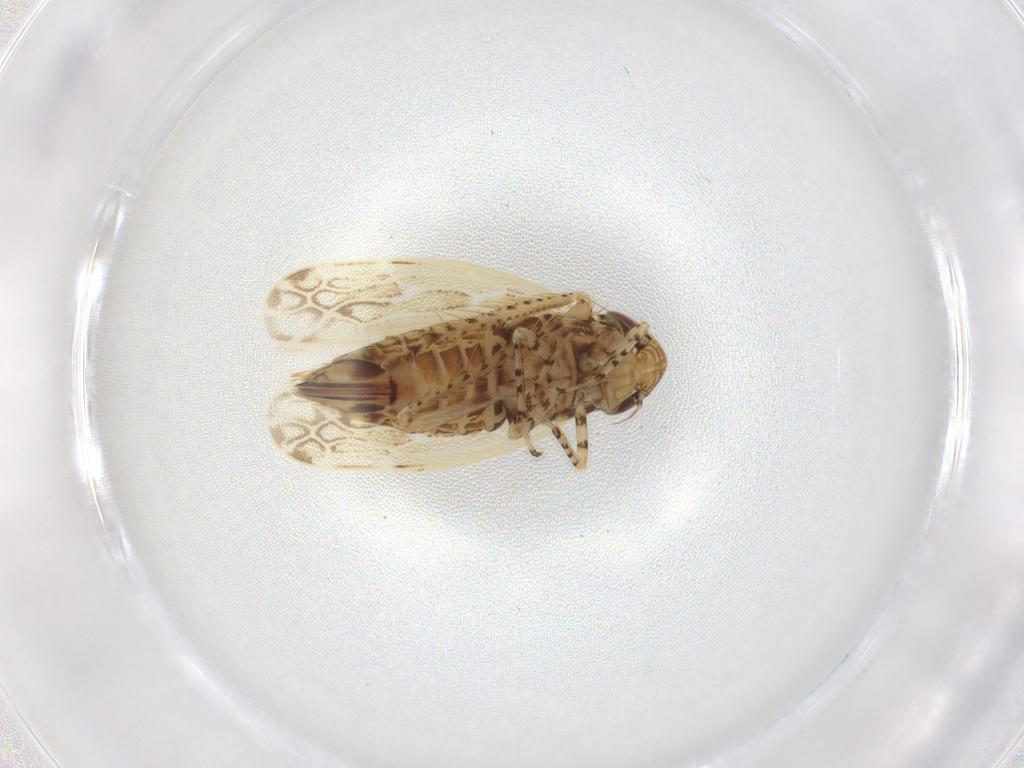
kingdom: Animalia
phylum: Arthropoda
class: Insecta
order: Hemiptera
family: Cicadellidae
